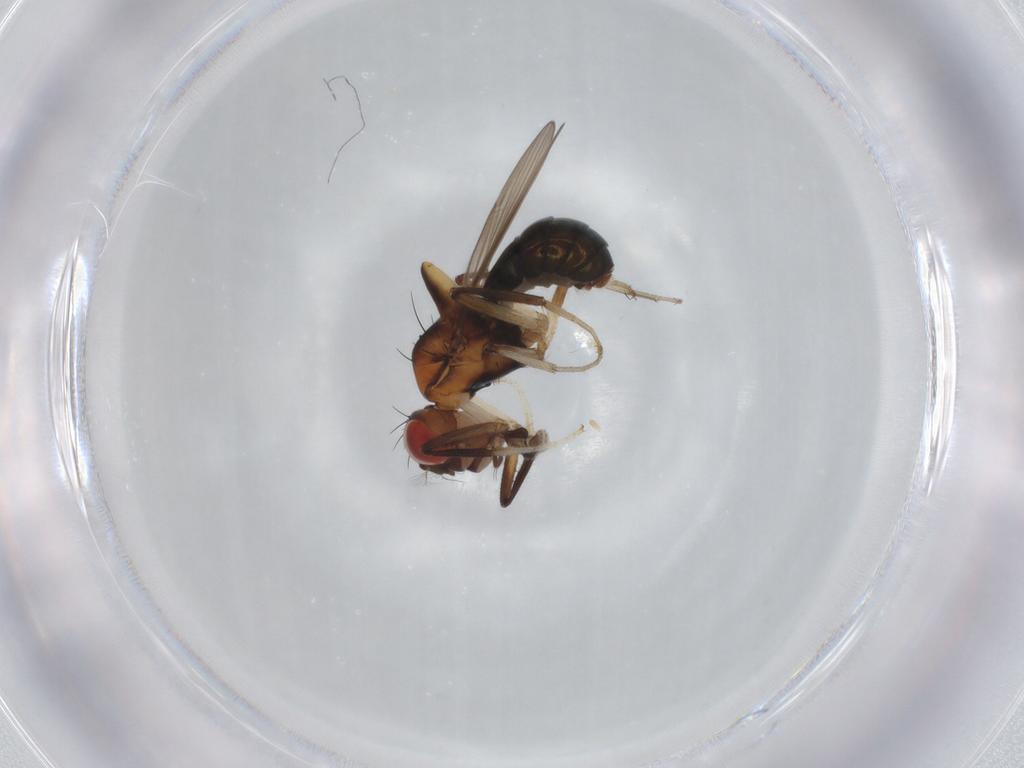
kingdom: Animalia
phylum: Arthropoda
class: Insecta
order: Diptera
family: Drosophilidae
